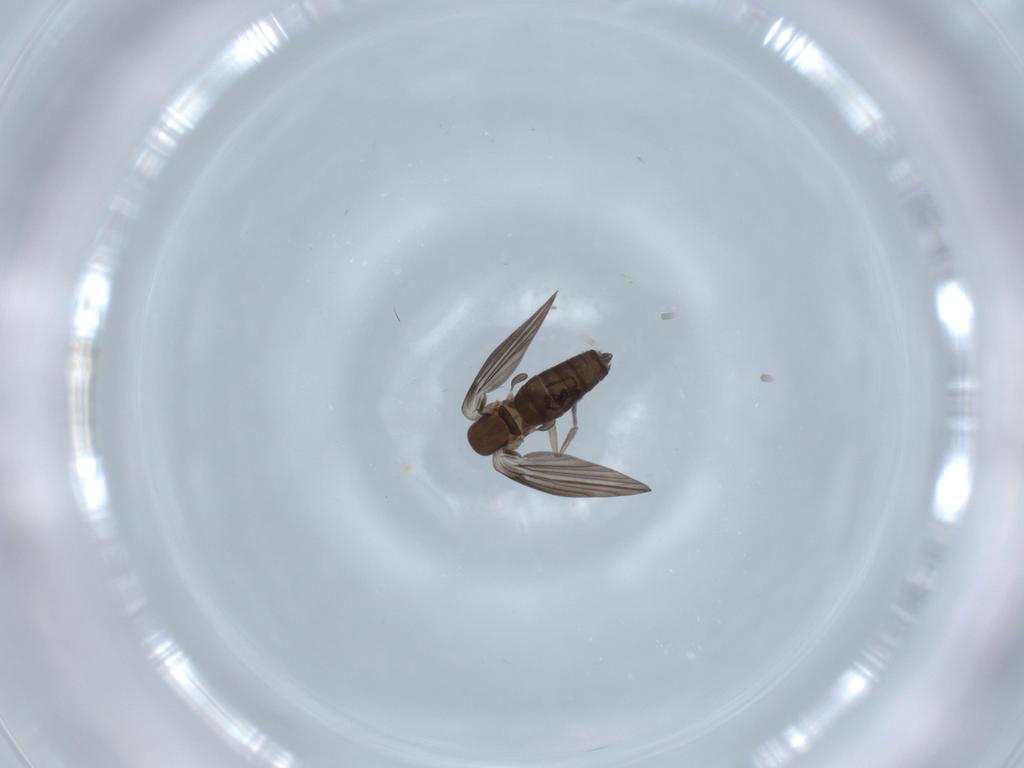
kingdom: Animalia
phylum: Arthropoda
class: Insecta
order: Diptera
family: Psychodidae
